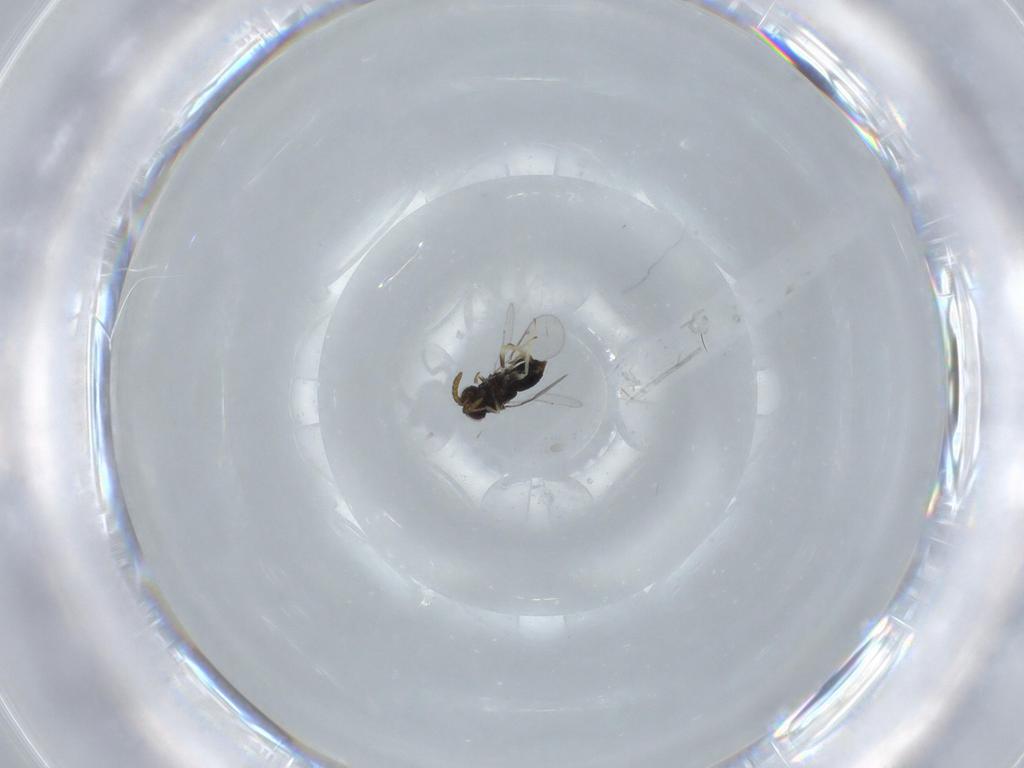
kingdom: Animalia
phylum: Arthropoda
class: Insecta
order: Hymenoptera
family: Aphelinidae
